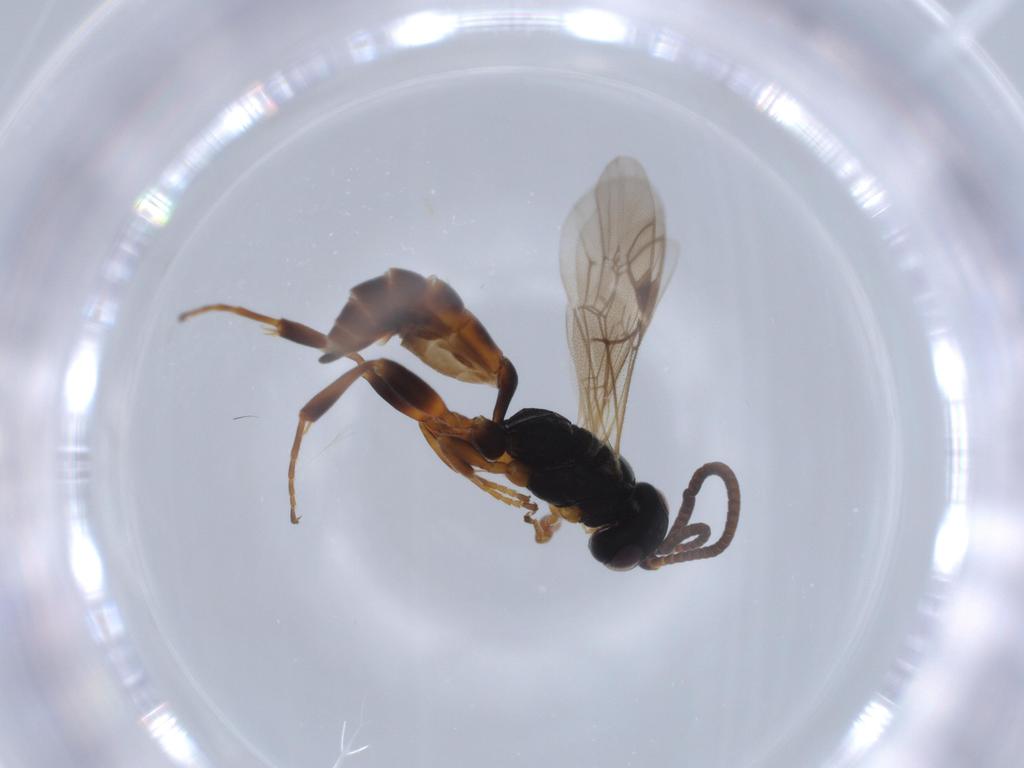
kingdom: Animalia
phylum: Arthropoda
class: Insecta
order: Hymenoptera
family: Ichneumonidae
